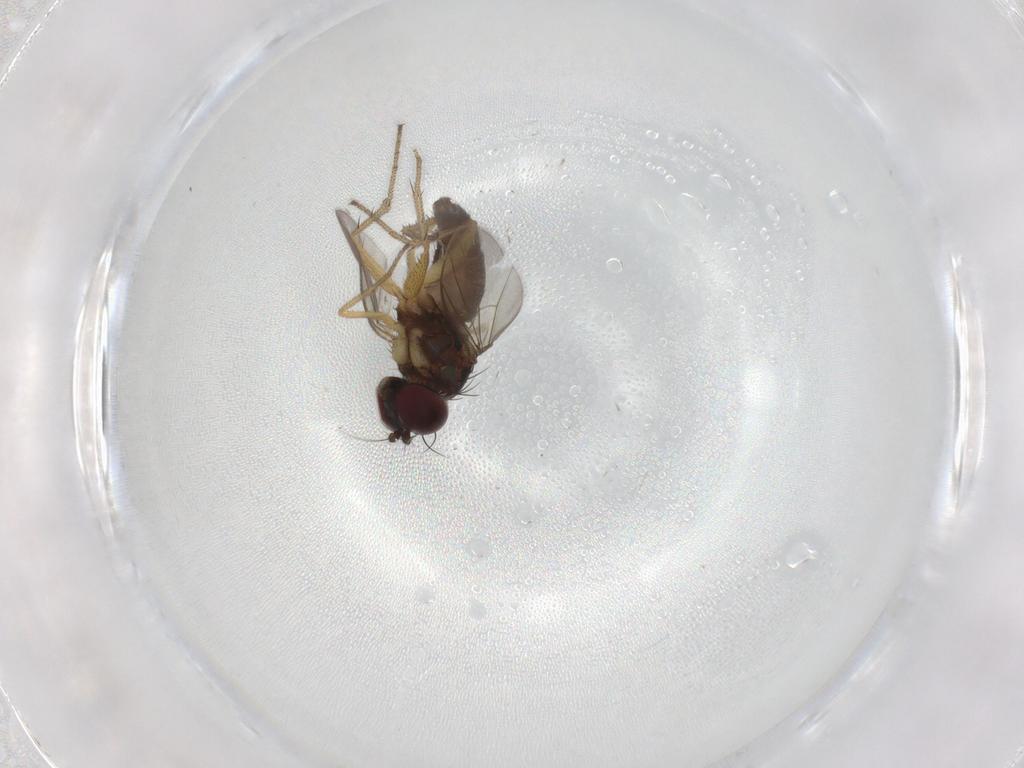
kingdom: Animalia
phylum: Arthropoda
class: Insecta
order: Diptera
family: Dolichopodidae
